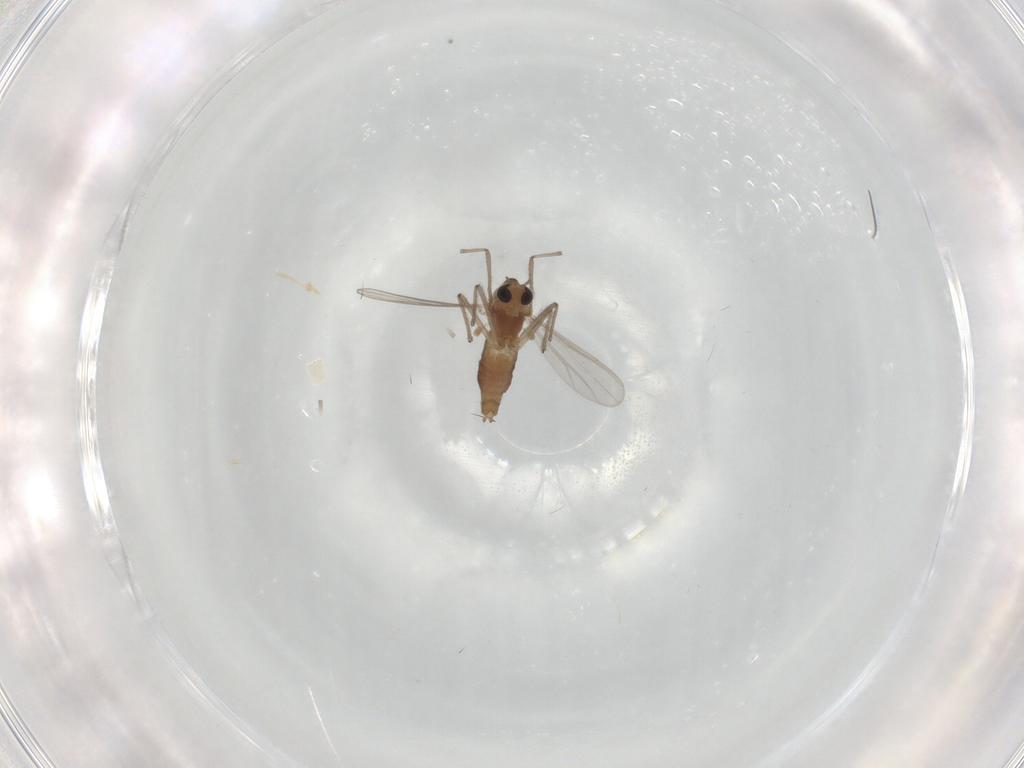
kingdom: Animalia
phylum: Arthropoda
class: Insecta
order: Diptera
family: Chironomidae
